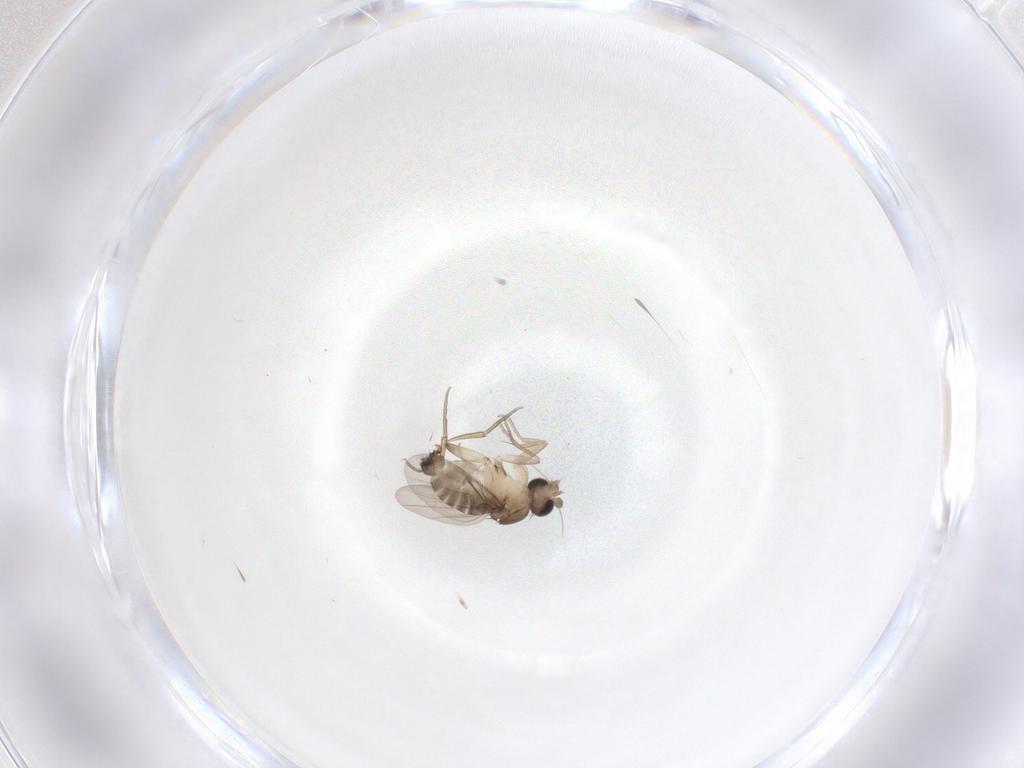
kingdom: Animalia
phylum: Arthropoda
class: Insecta
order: Diptera
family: Phoridae
